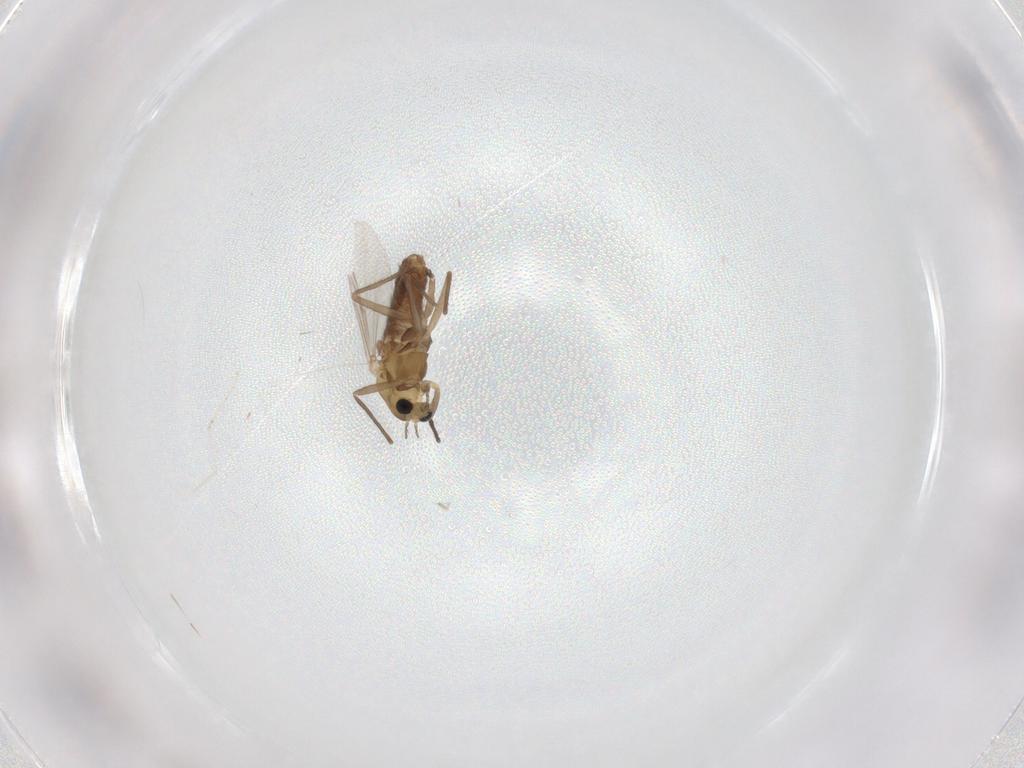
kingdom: Animalia
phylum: Arthropoda
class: Insecta
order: Diptera
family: Chironomidae
